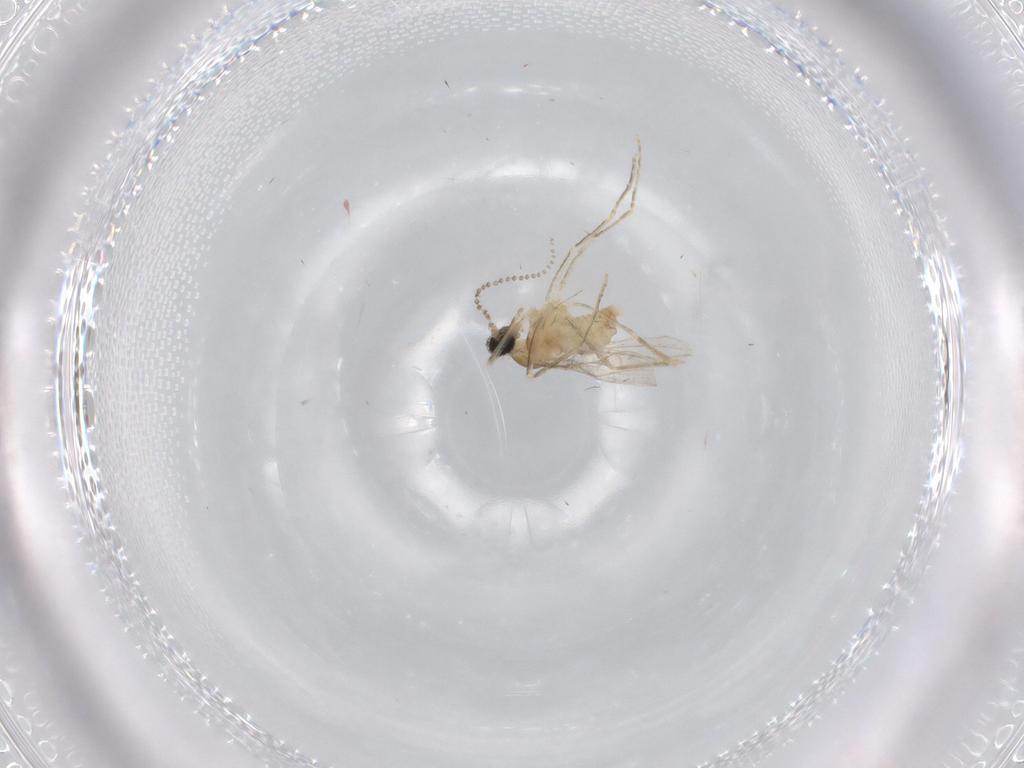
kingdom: Animalia
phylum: Arthropoda
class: Insecta
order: Diptera
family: Cecidomyiidae
